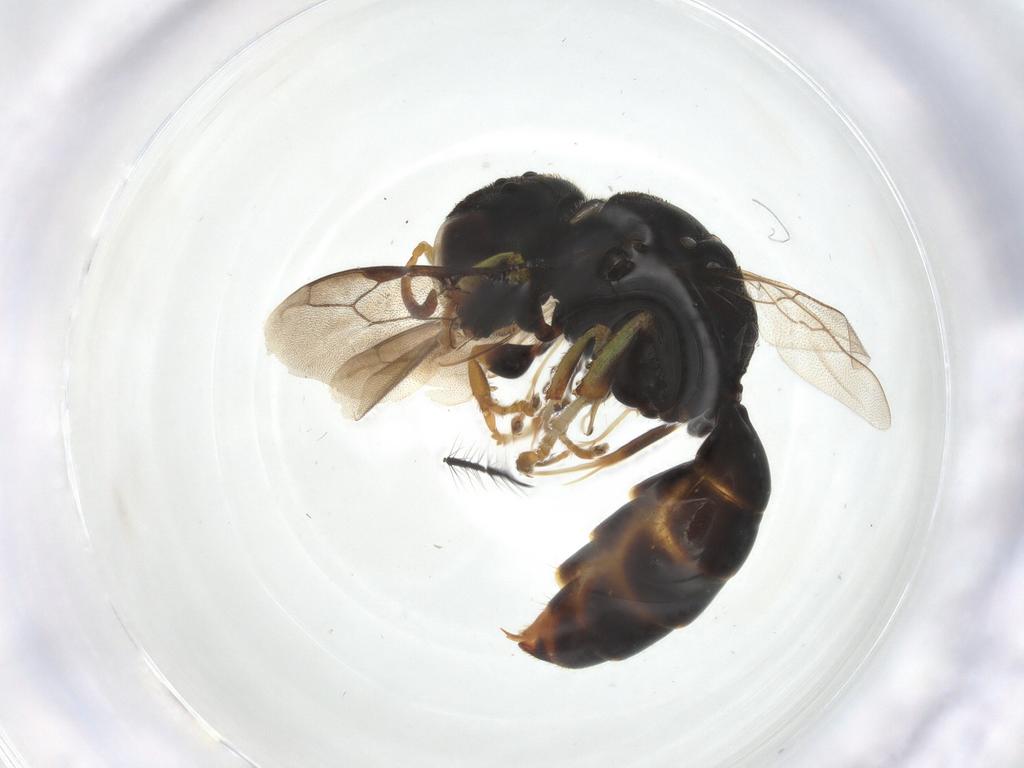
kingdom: Animalia
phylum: Arthropoda
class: Insecta
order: Hymenoptera
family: Crabronidae
